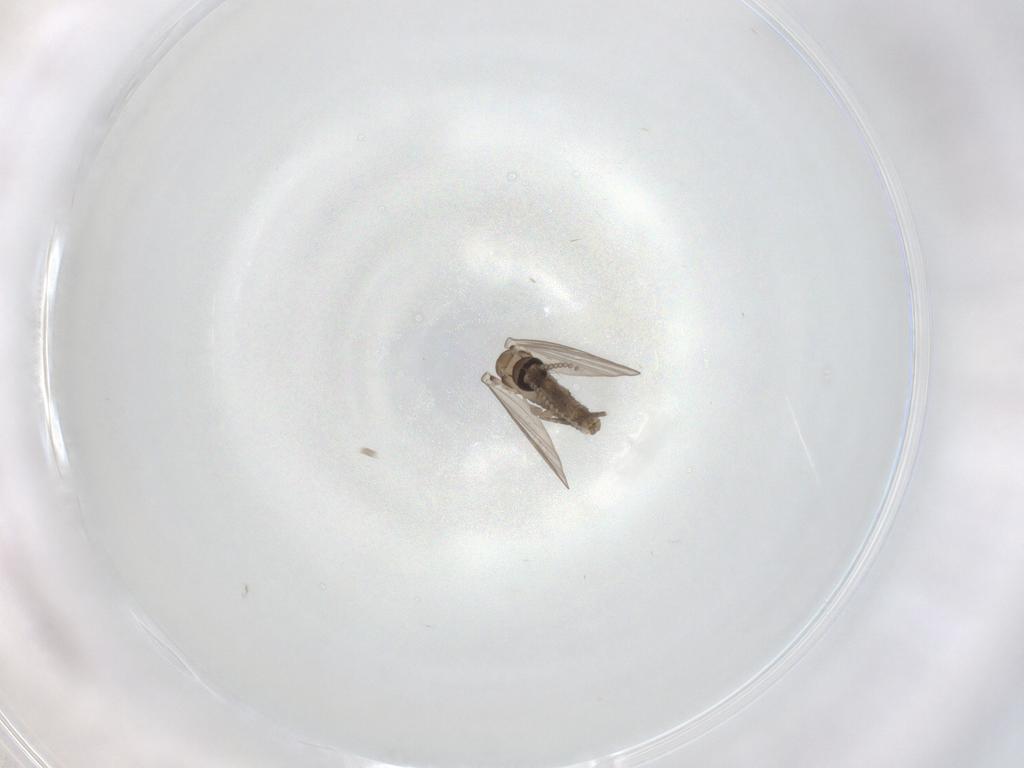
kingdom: Animalia
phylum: Arthropoda
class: Insecta
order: Diptera
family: Psychodidae
